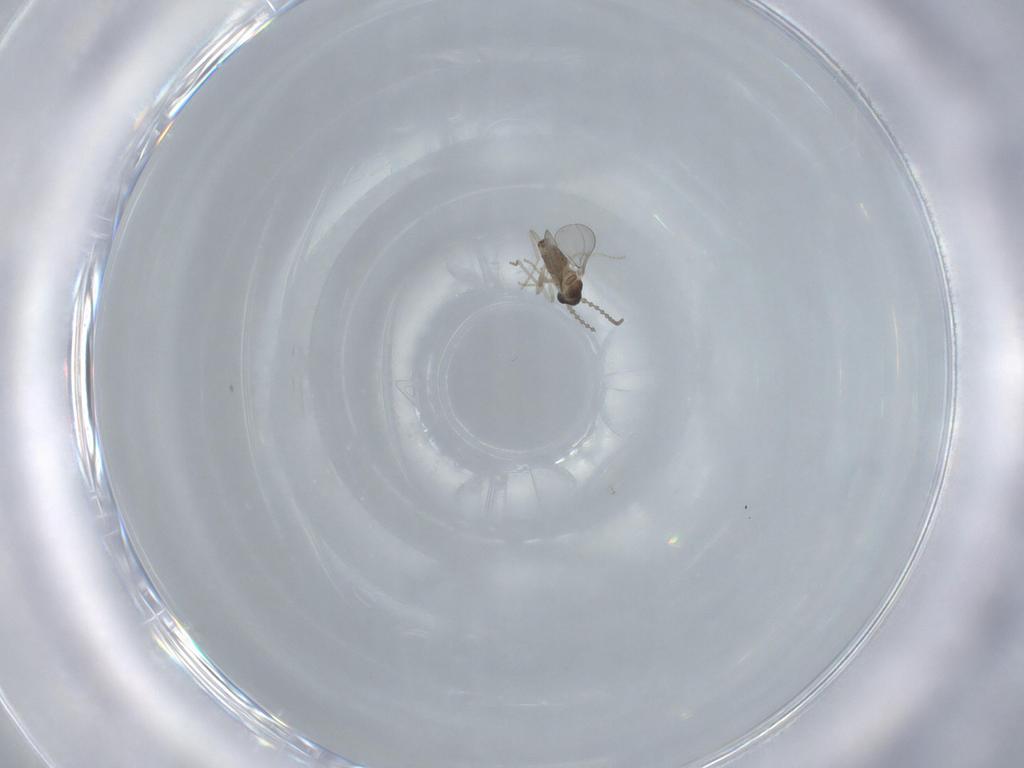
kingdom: Animalia
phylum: Arthropoda
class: Insecta
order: Diptera
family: Cecidomyiidae
